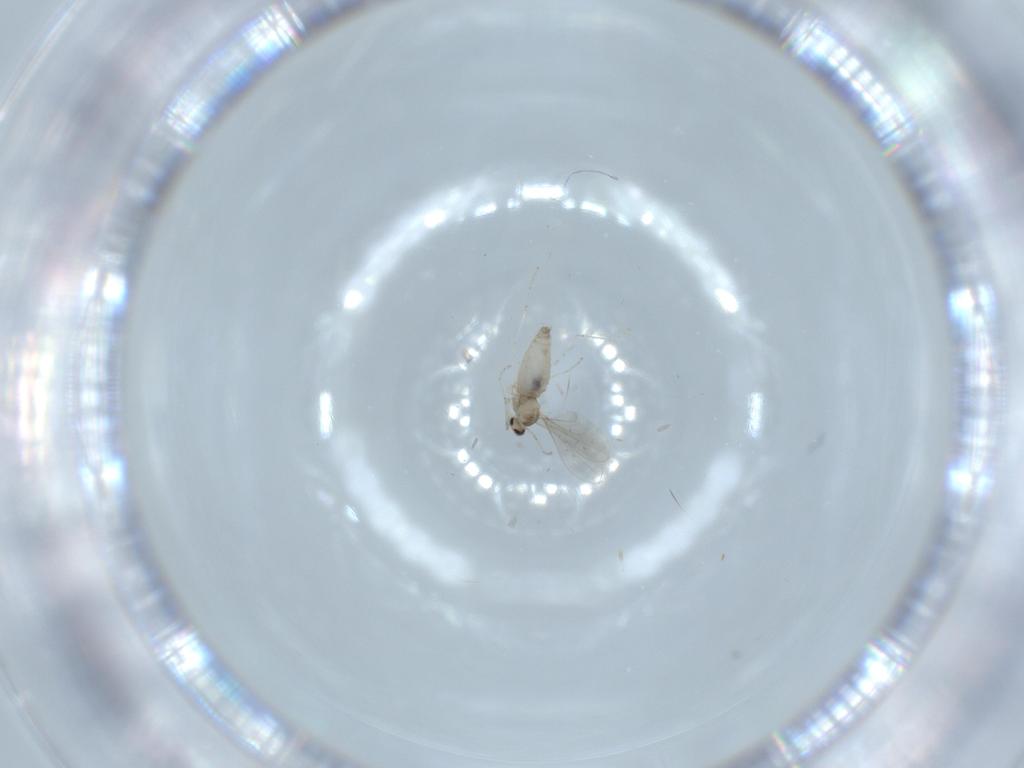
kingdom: Animalia
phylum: Arthropoda
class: Insecta
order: Diptera
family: Cecidomyiidae
